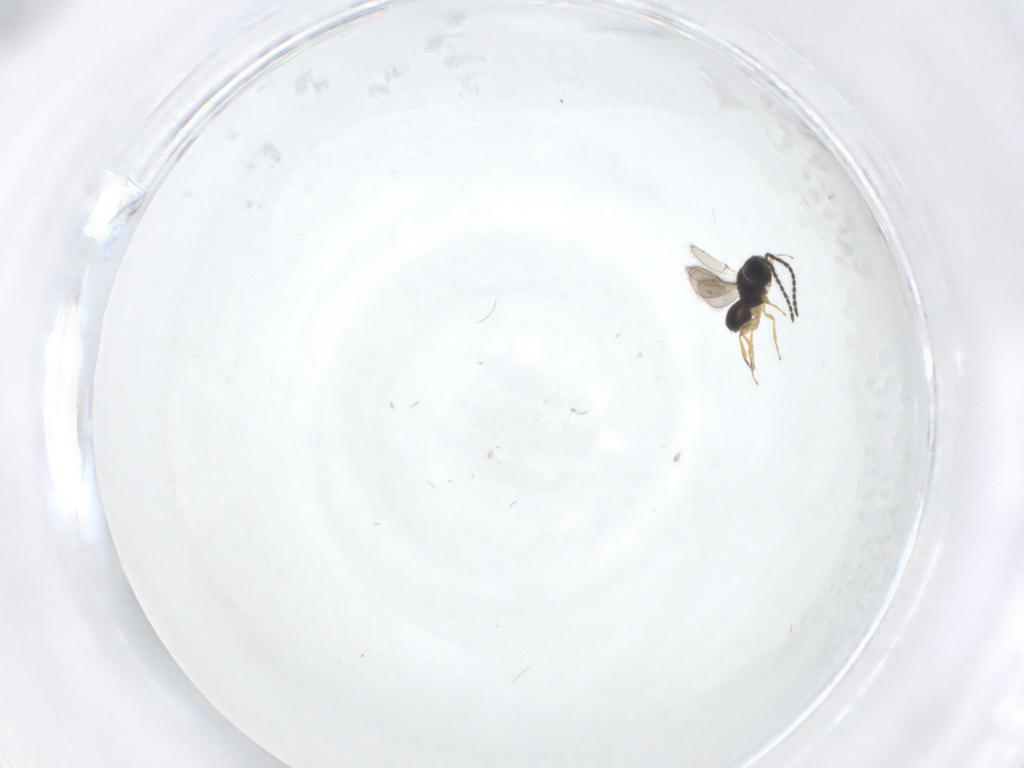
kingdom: Animalia
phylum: Arthropoda
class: Insecta
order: Hymenoptera
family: Scelionidae
